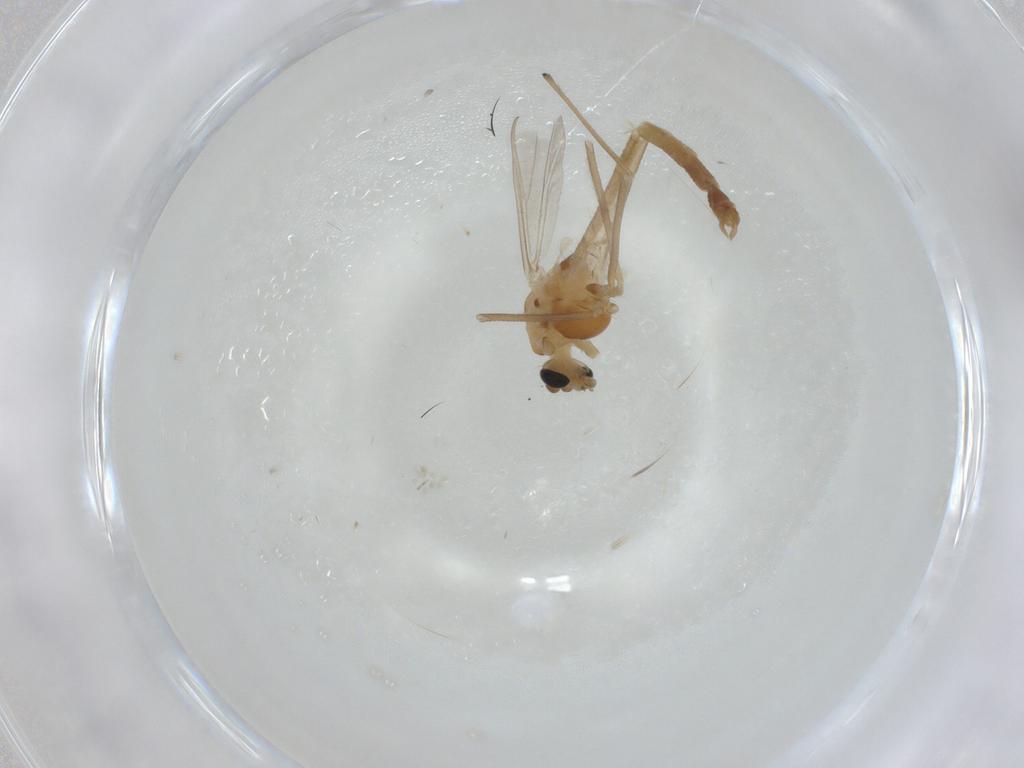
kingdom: Animalia
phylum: Arthropoda
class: Insecta
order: Diptera
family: Chironomidae
